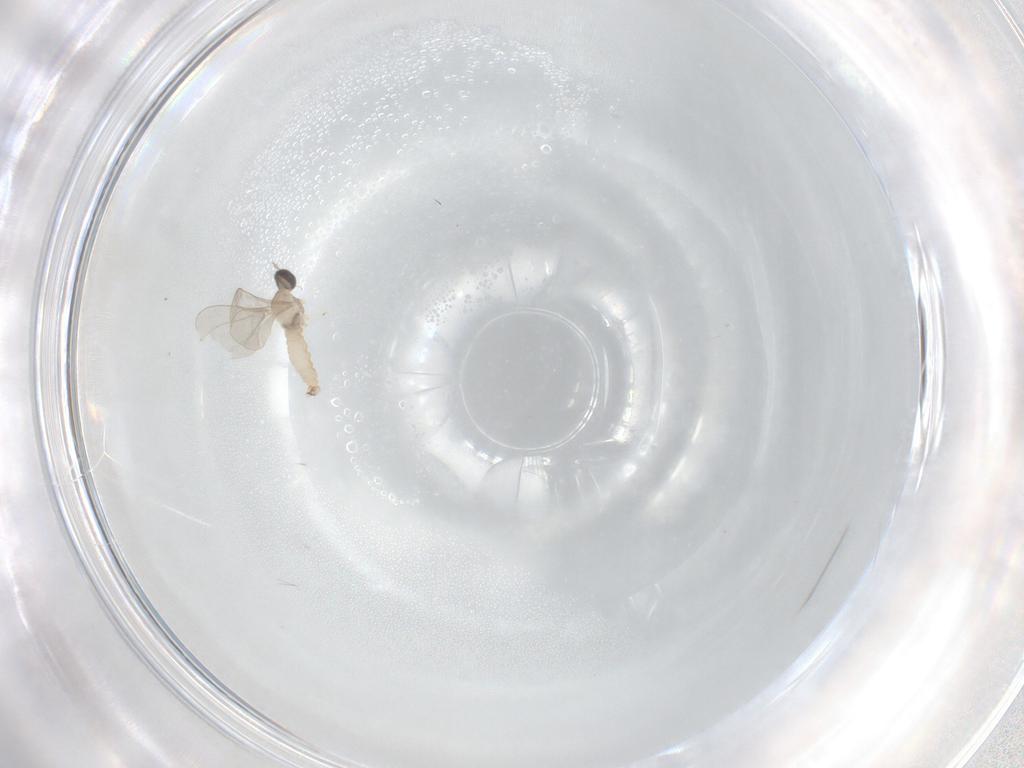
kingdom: Animalia
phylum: Arthropoda
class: Insecta
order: Diptera
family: Cecidomyiidae
